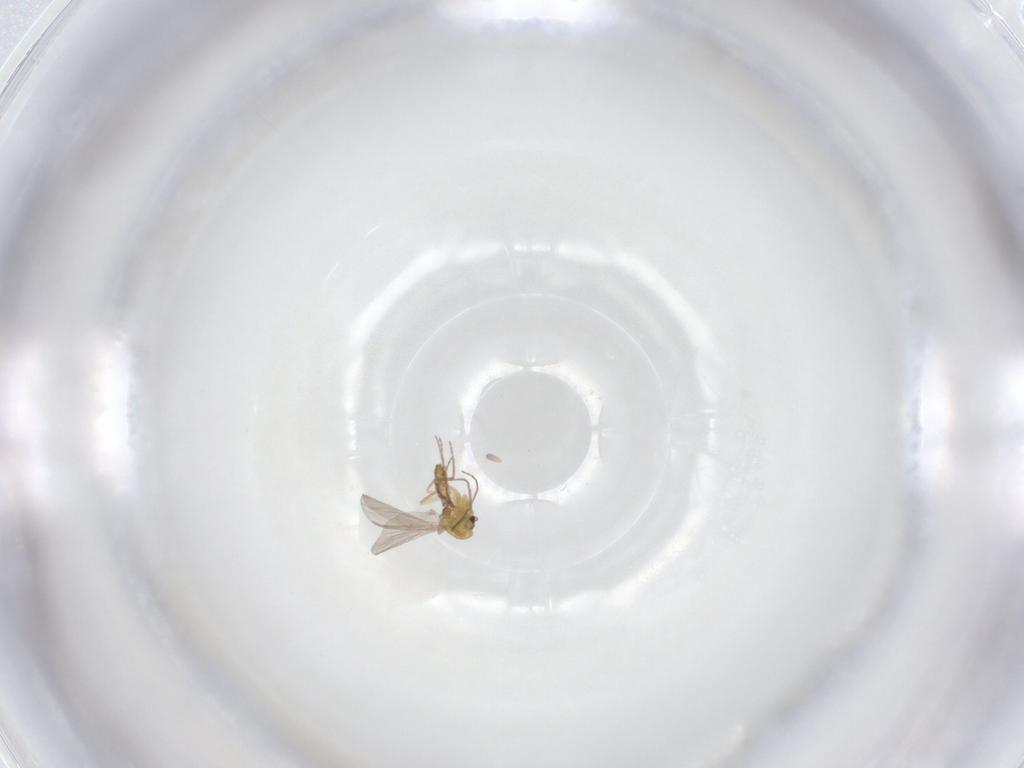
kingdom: Animalia
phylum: Arthropoda
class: Insecta
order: Diptera
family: Chironomidae
